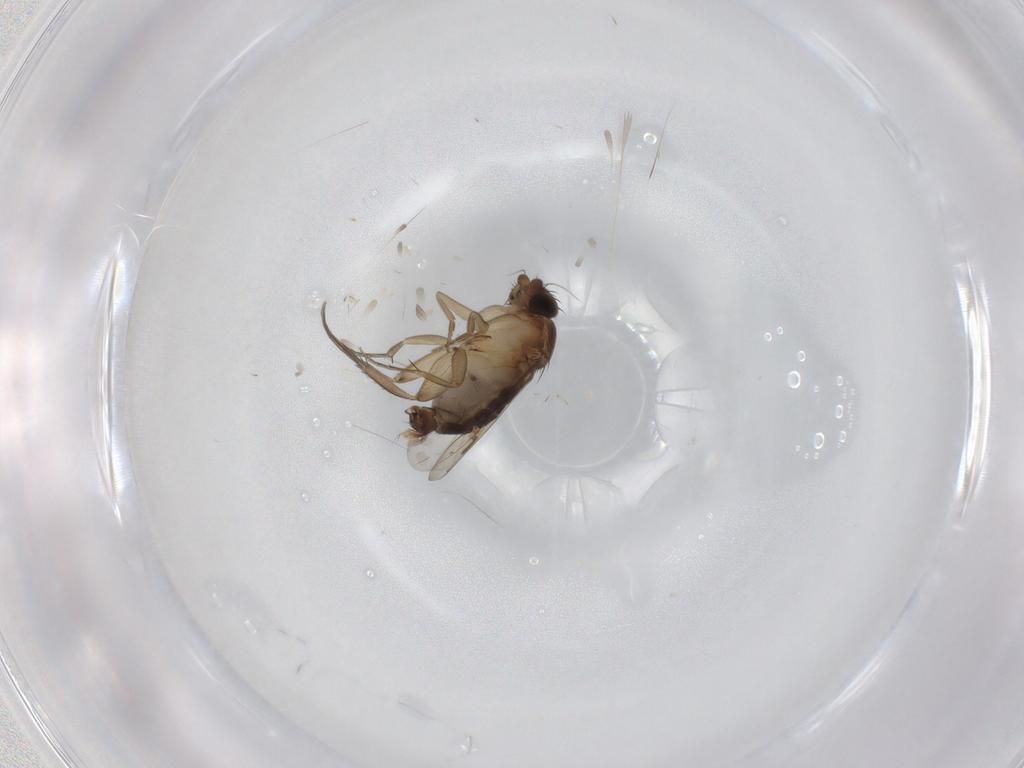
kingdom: Animalia
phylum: Arthropoda
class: Insecta
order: Diptera
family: Phoridae
